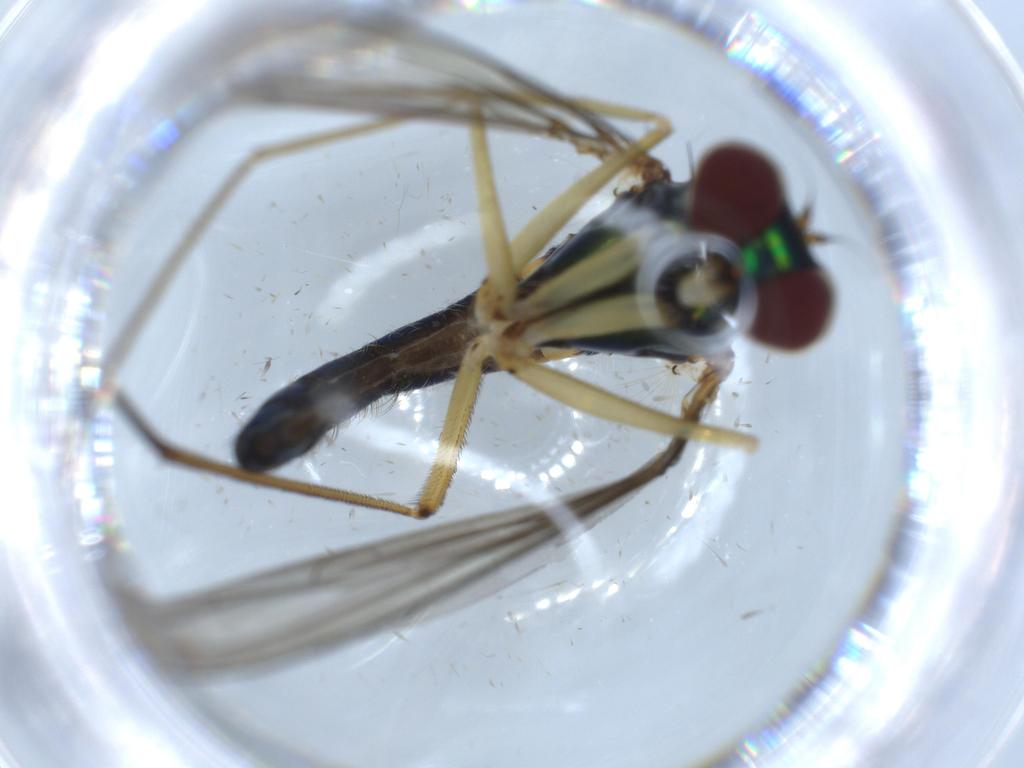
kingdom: Animalia
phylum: Arthropoda
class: Insecta
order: Diptera
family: Dolichopodidae
